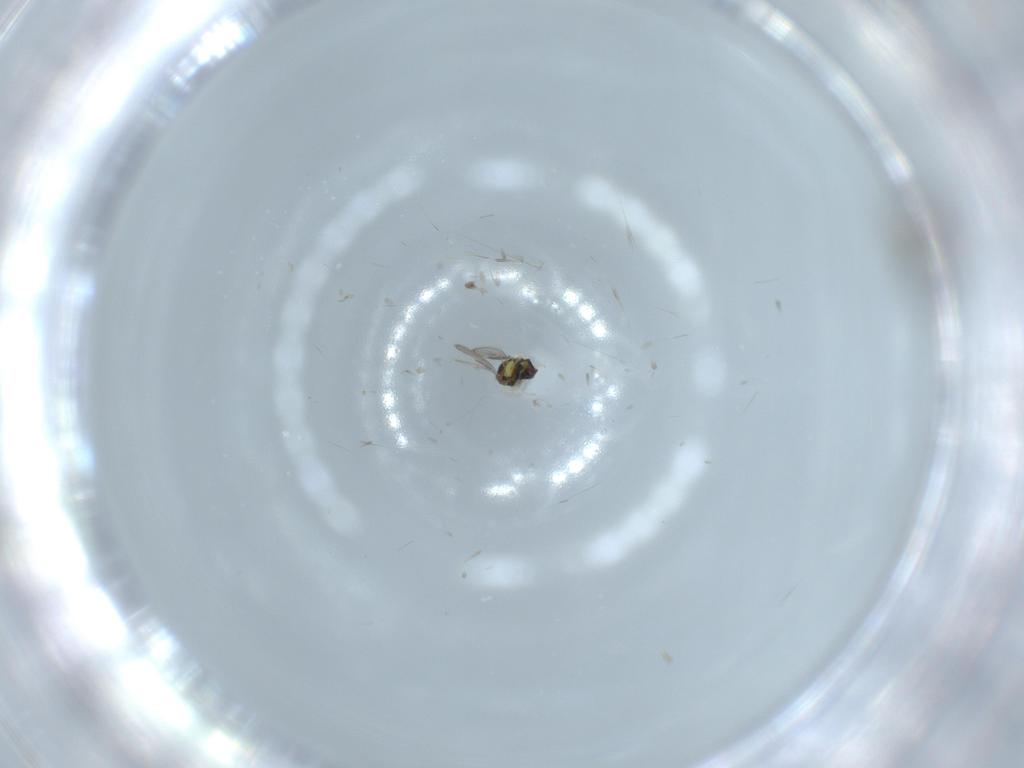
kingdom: Animalia
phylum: Arthropoda
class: Insecta
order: Hymenoptera
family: Scelionidae
